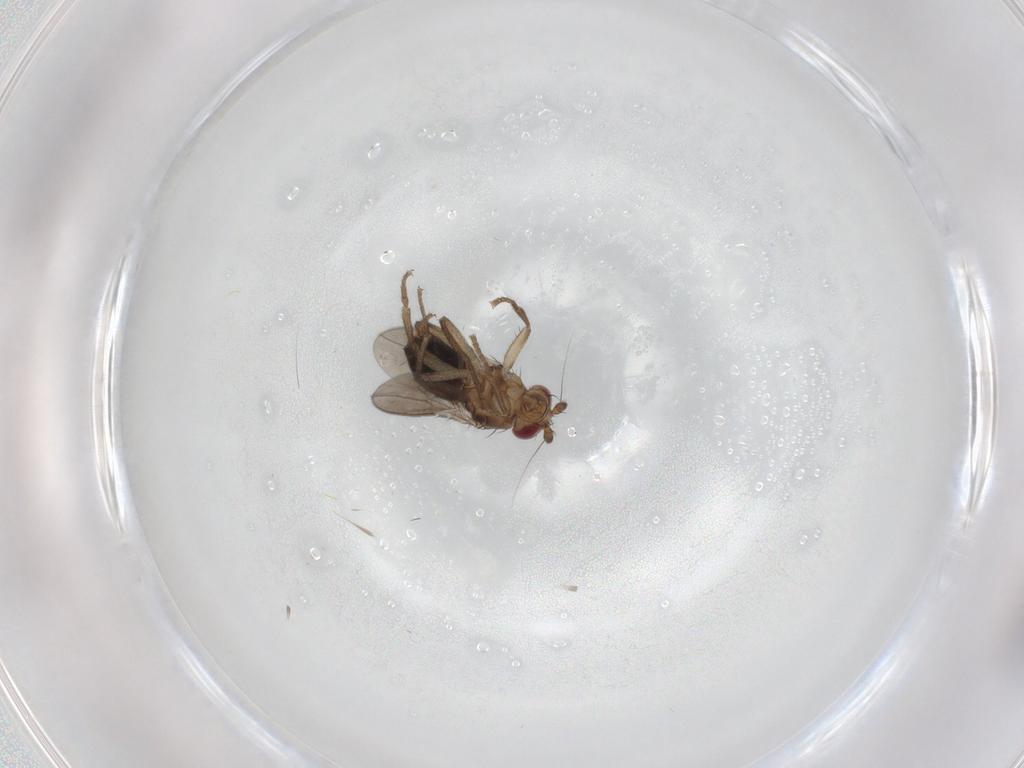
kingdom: Animalia
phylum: Arthropoda
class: Insecta
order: Diptera
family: Sphaeroceridae
